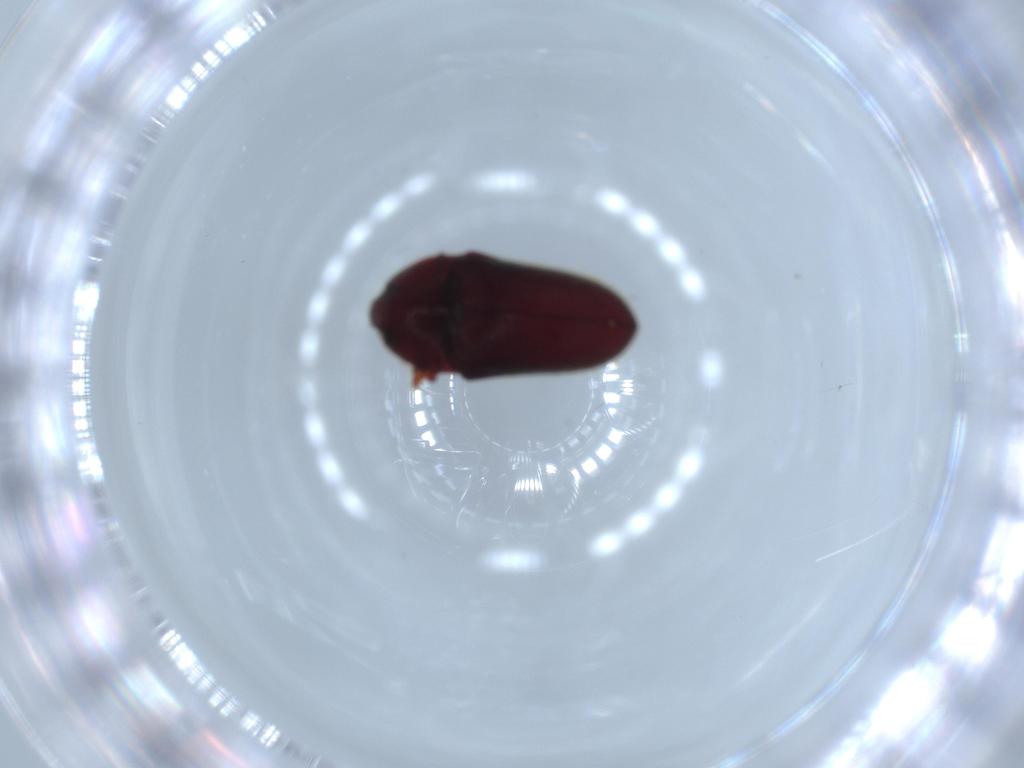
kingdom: Animalia
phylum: Arthropoda
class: Insecta
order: Coleoptera
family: Throscidae
